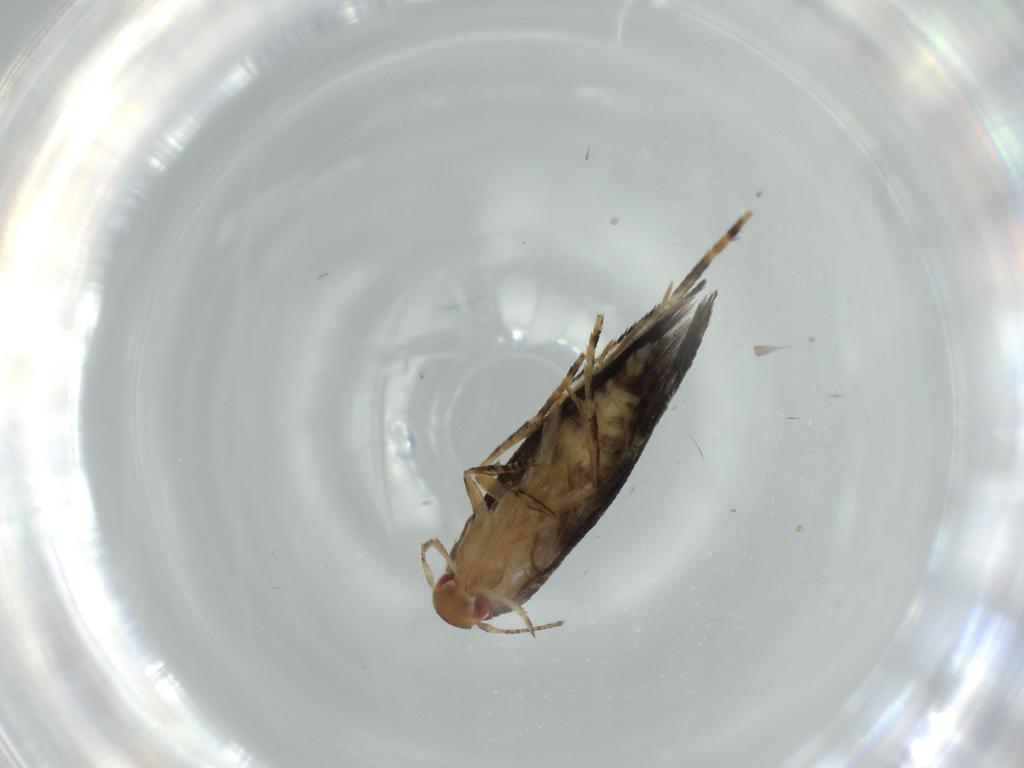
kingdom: Animalia
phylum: Arthropoda
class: Insecta
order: Lepidoptera
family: Momphidae
